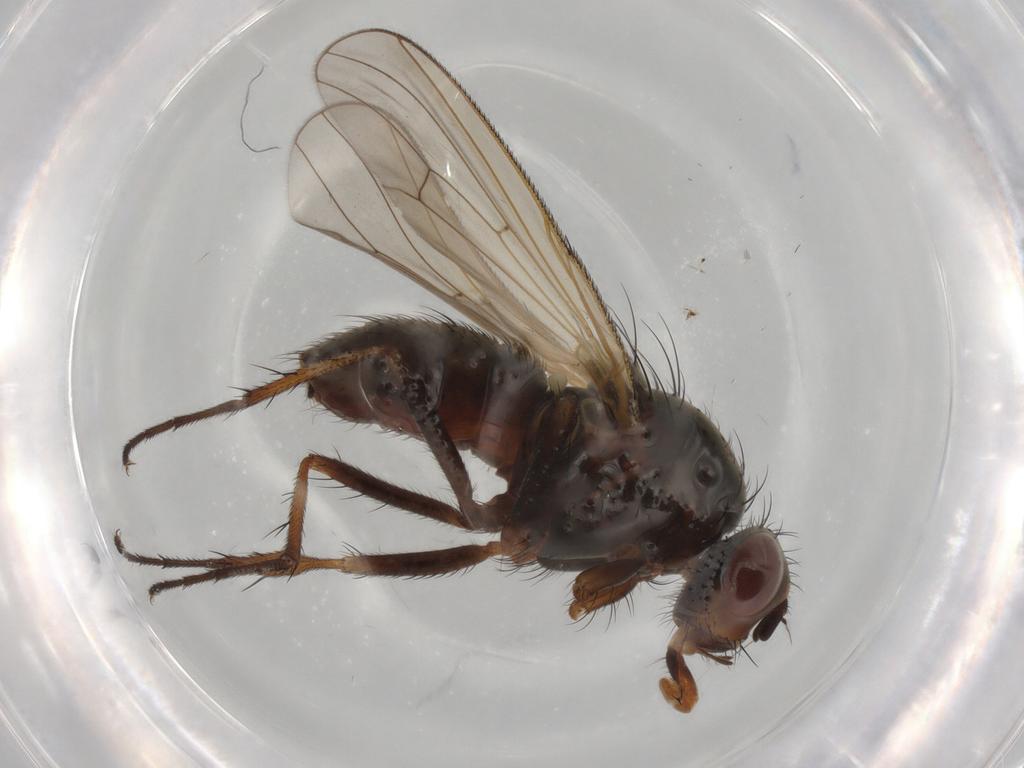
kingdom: Animalia
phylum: Arthropoda
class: Insecta
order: Diptera
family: Anthomyiidae
